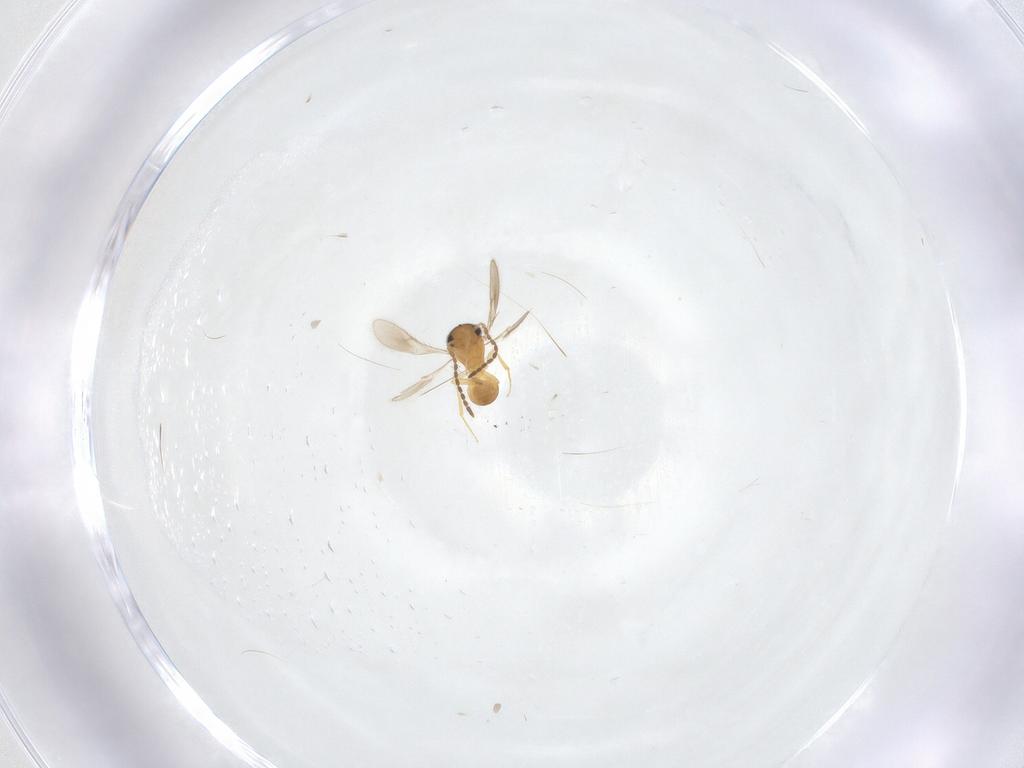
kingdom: Animalia
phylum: Arthropoda
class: Insecta
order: Hymenoptera
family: Scelionidae
